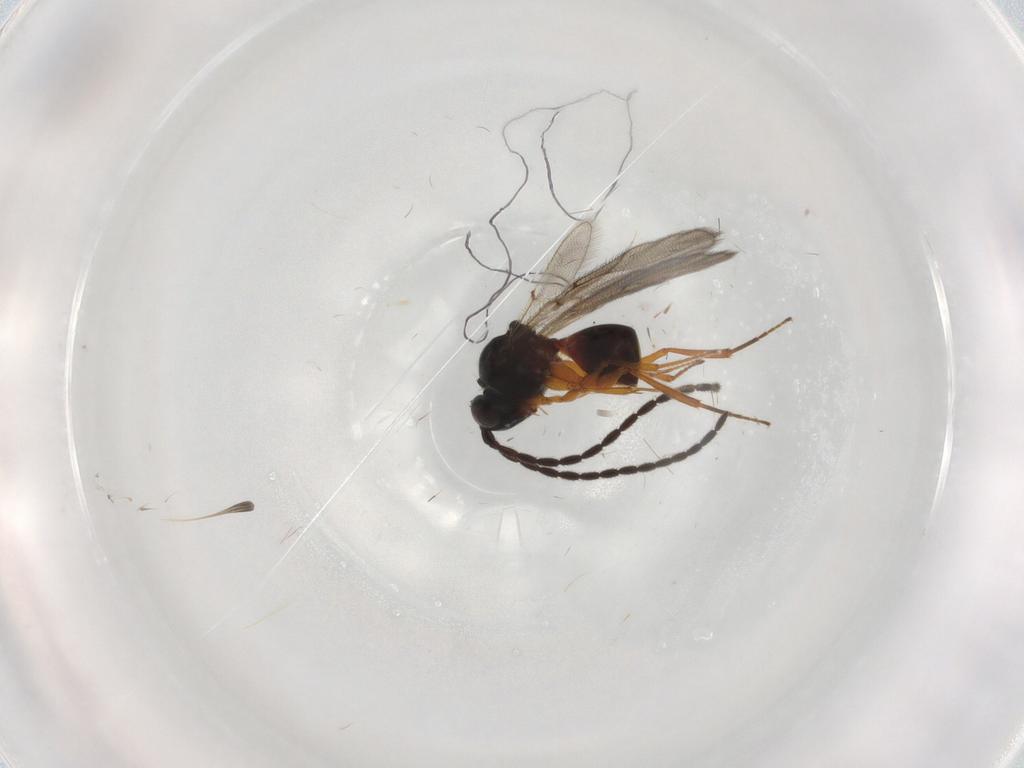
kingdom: Animalia
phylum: Arthropoda
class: Insecta
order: Hymenoptera
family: Figitidae
